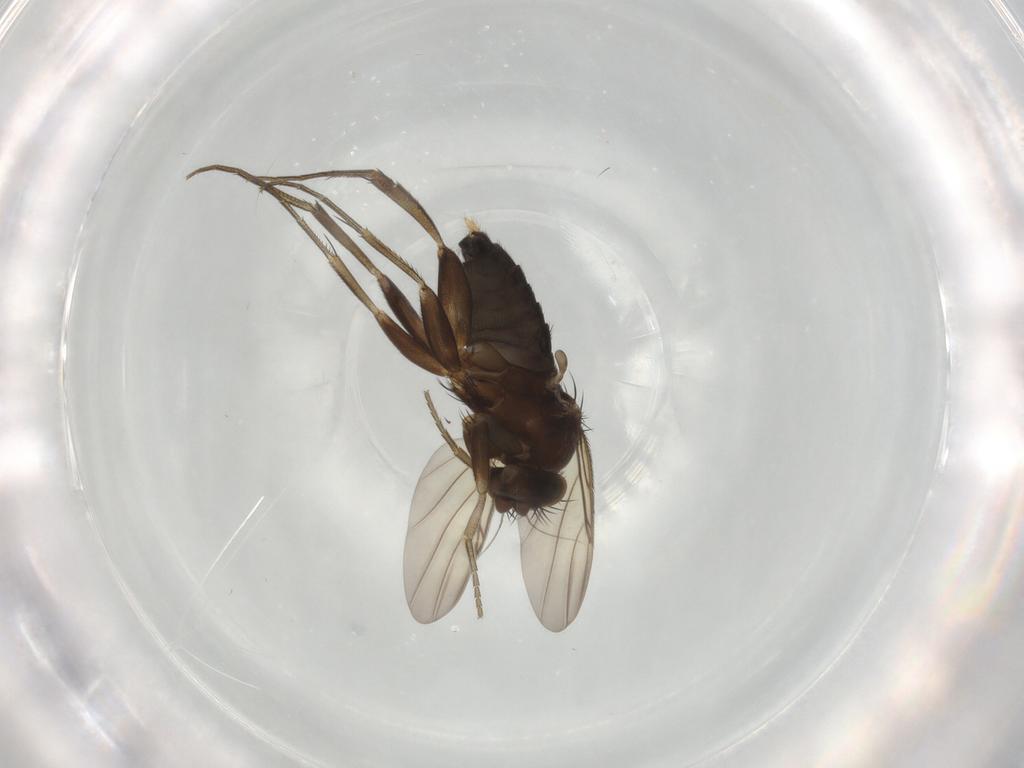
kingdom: Animalia
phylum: Arthropoda
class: Insecta
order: Diptera
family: Phoridae
